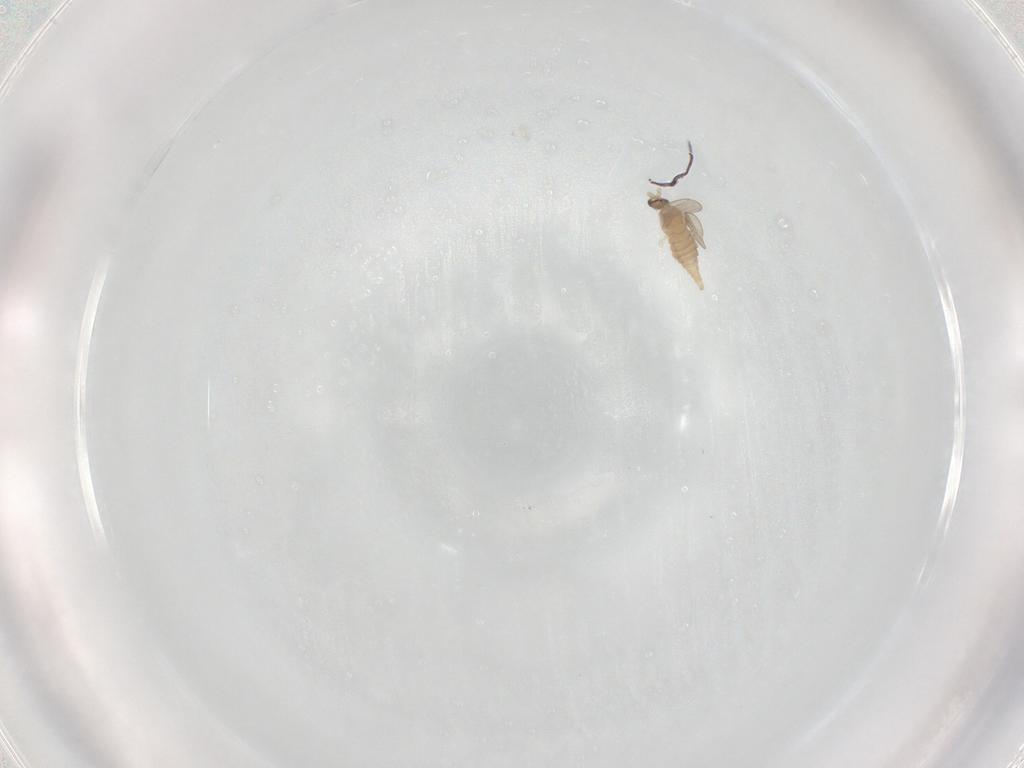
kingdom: Animalia
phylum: Arthropoda
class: Insecta
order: Diptera
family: Cecidomyiidae
